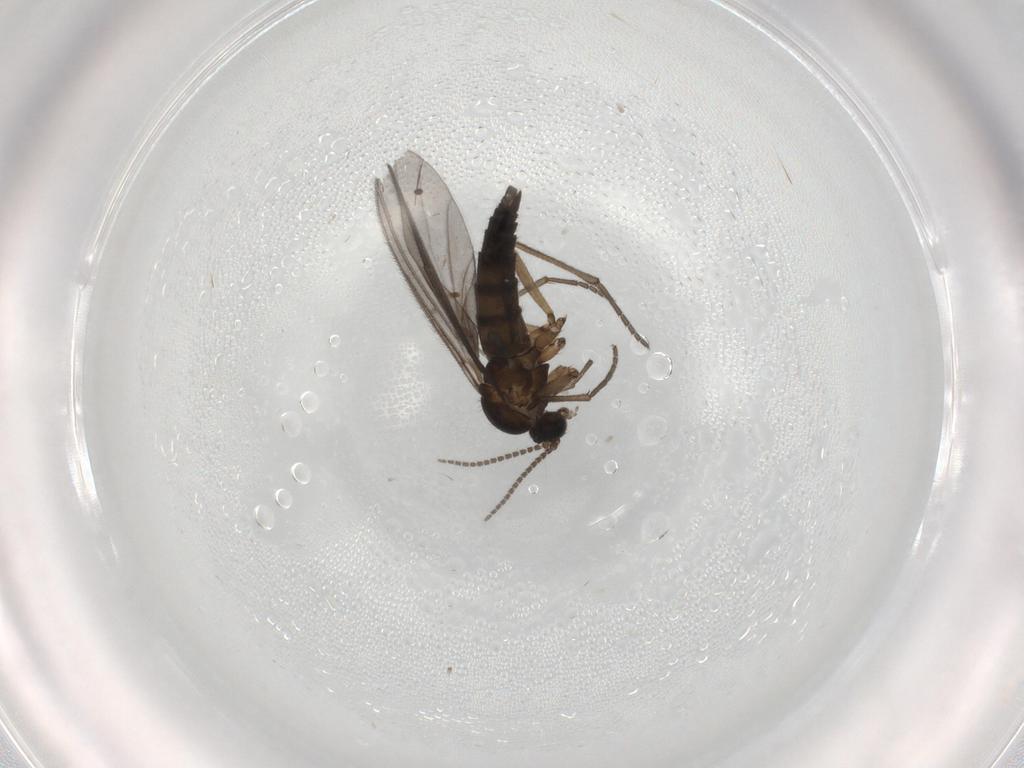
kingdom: Animalia
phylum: Arthropoda
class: Insecta
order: Diptera
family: Sciaridae
